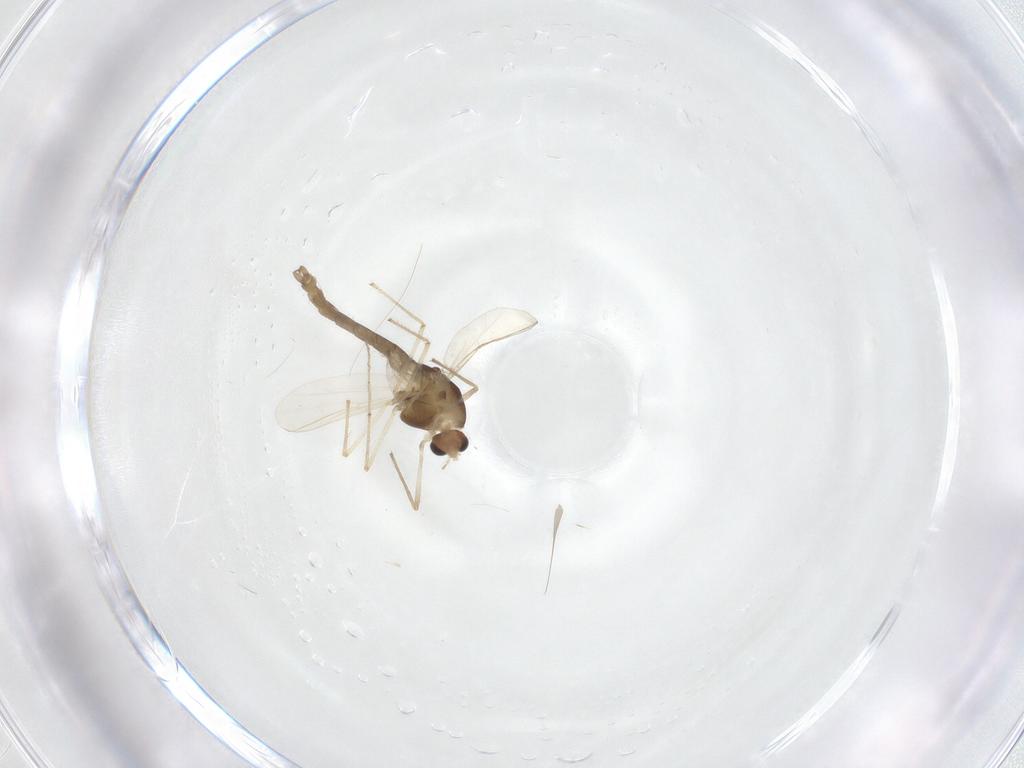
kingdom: Animalia
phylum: Arthropoda
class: Insecta
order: Diptera
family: Chironomidae
